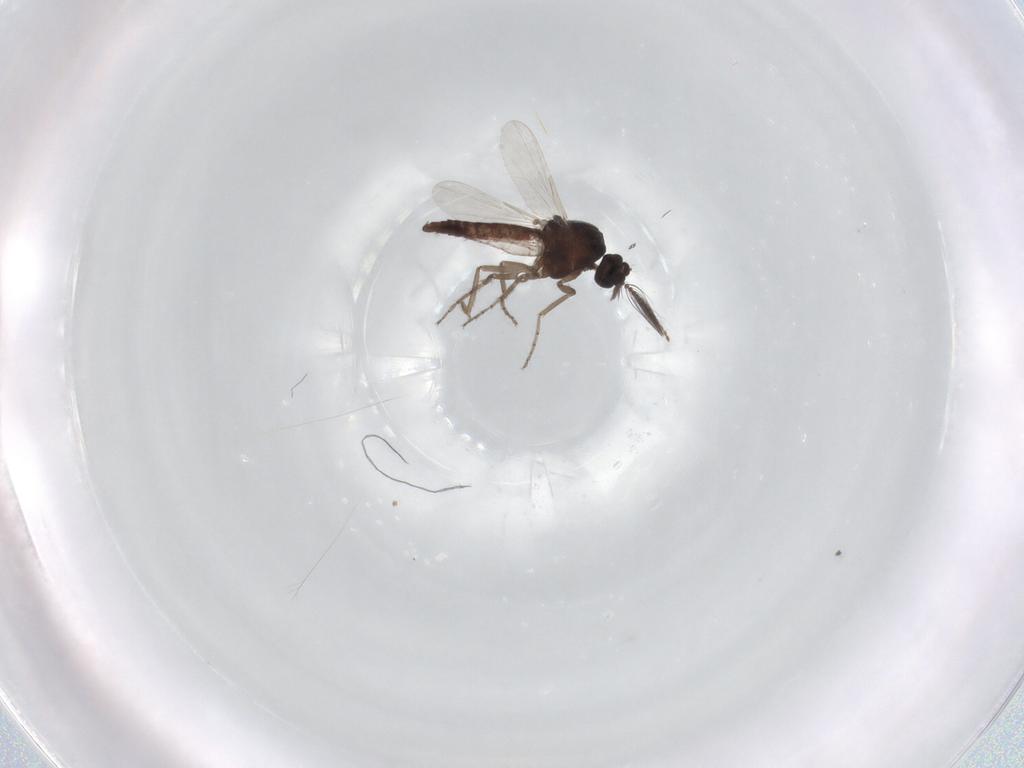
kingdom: Animalia
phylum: Arthropoda
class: Insecta
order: Diptera
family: Ceratopogonidae
